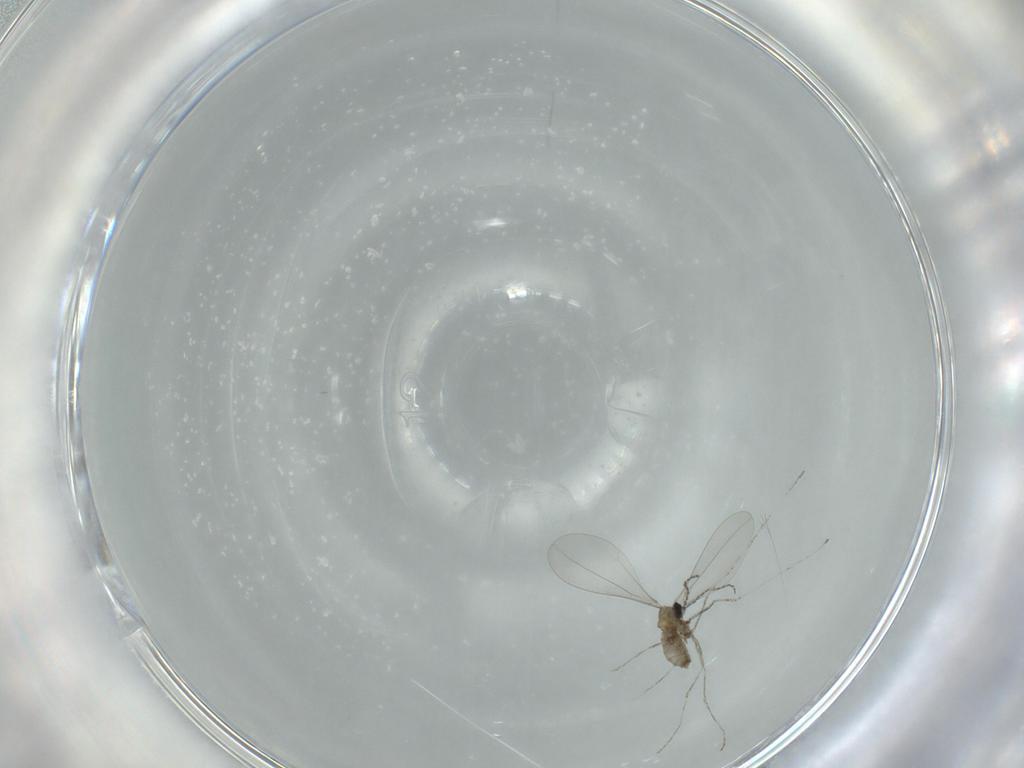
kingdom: Animalia
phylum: Arthropoda
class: Insecta
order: Diptera
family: Cecidomyiidae
